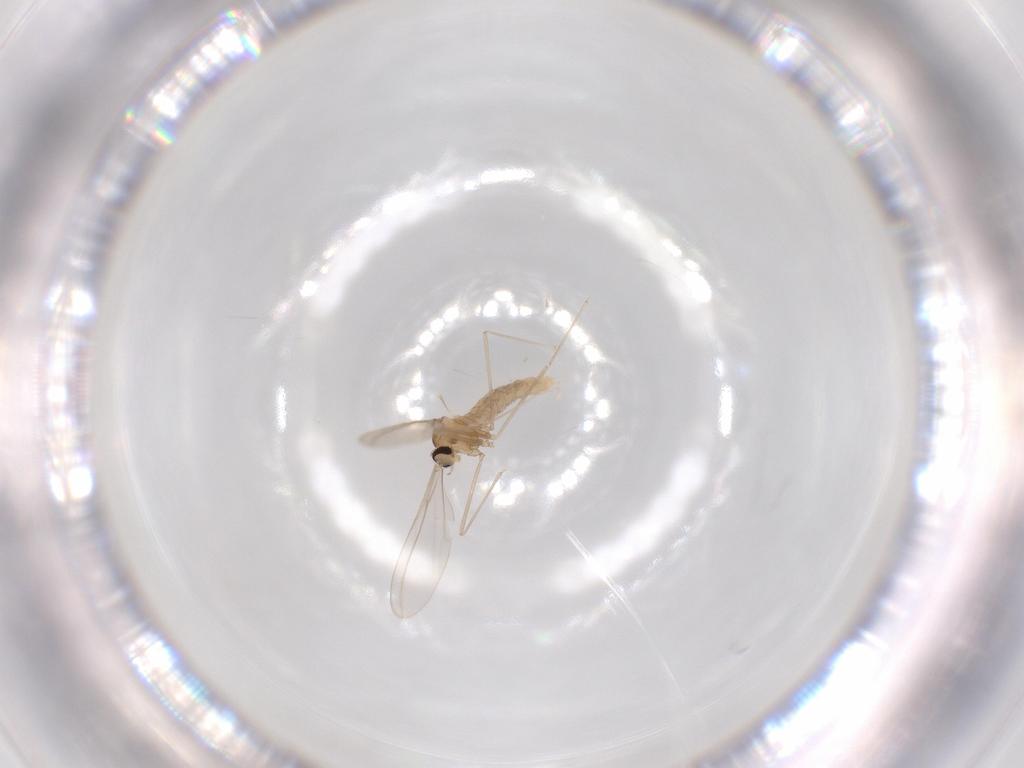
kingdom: Animalia
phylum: Arthropoda
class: Insecta
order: Diptera
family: Sciaridae
